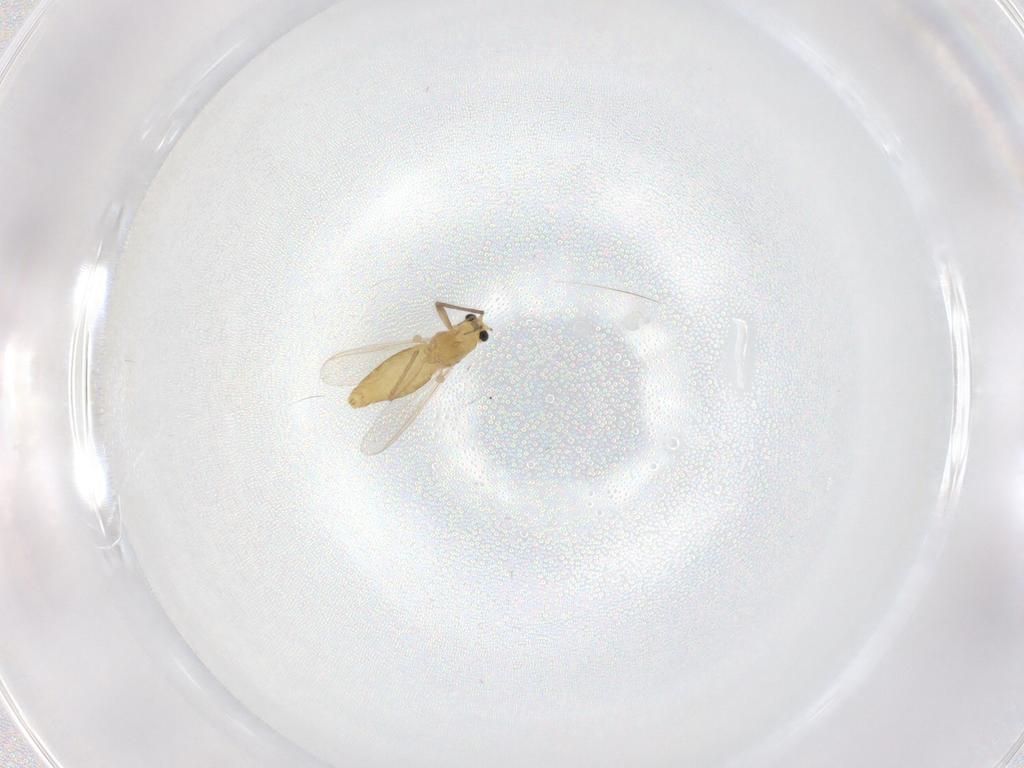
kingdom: Animalia
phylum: Arthropoda
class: Insecta
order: Diptera
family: Chironomidae
